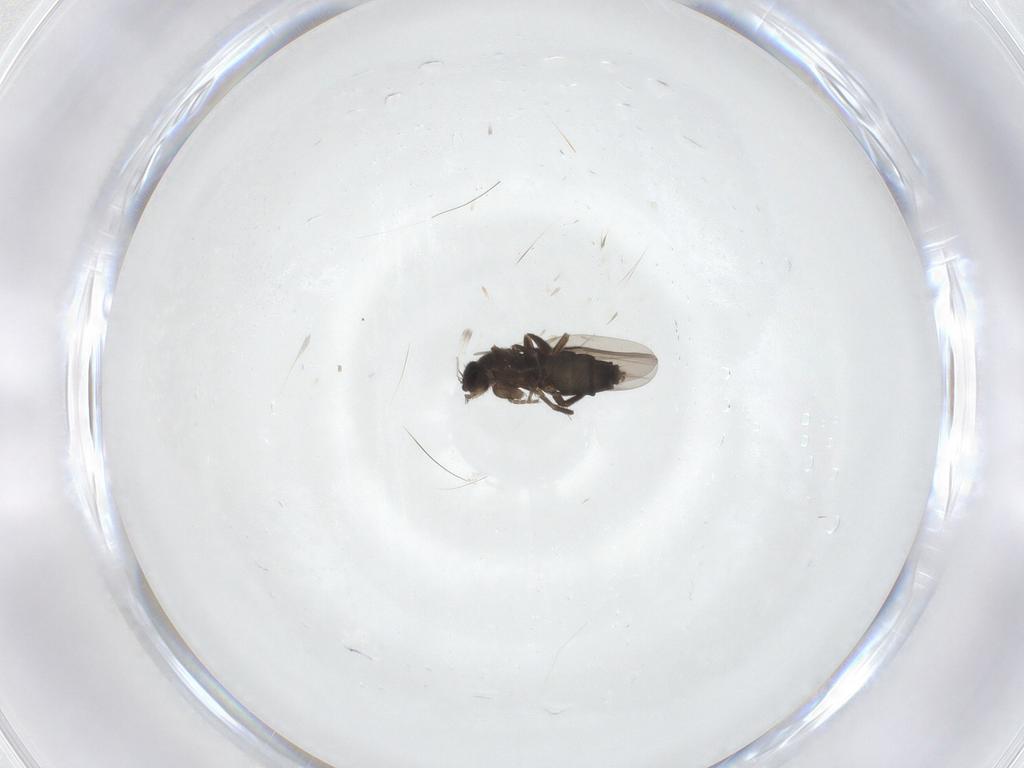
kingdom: Animalia
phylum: Arthropoda
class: Insecta
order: Diptera
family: Phoridae
